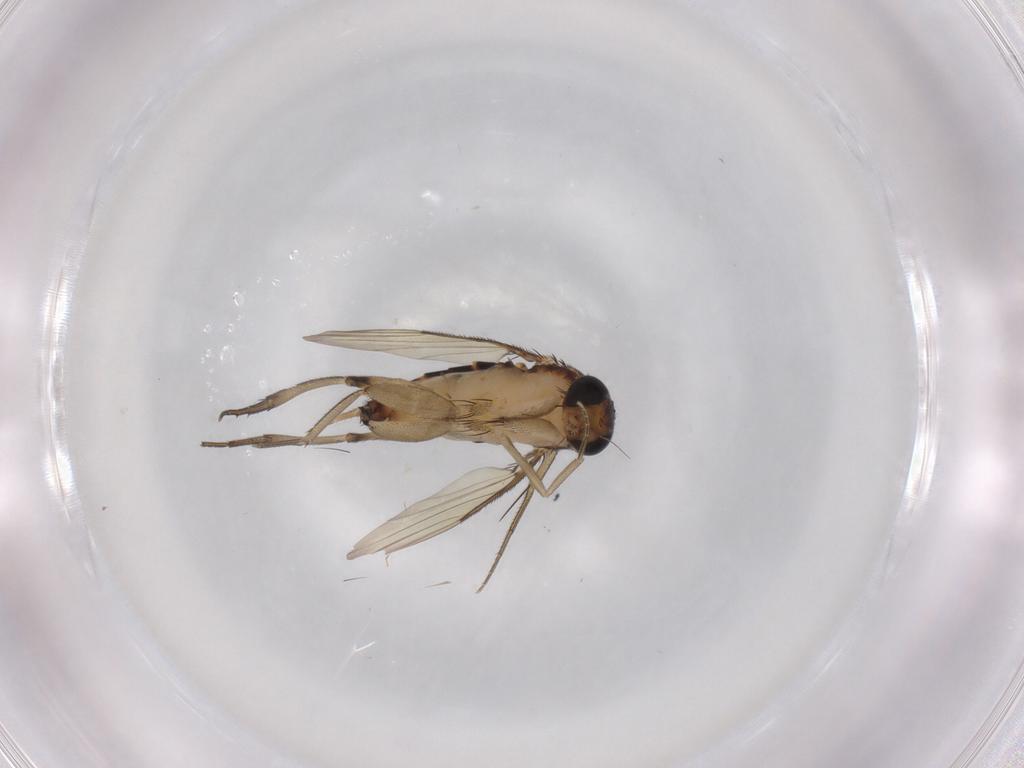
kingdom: Animalia
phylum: Arthropoda
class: Insecta
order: Diptera
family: Phoridae
